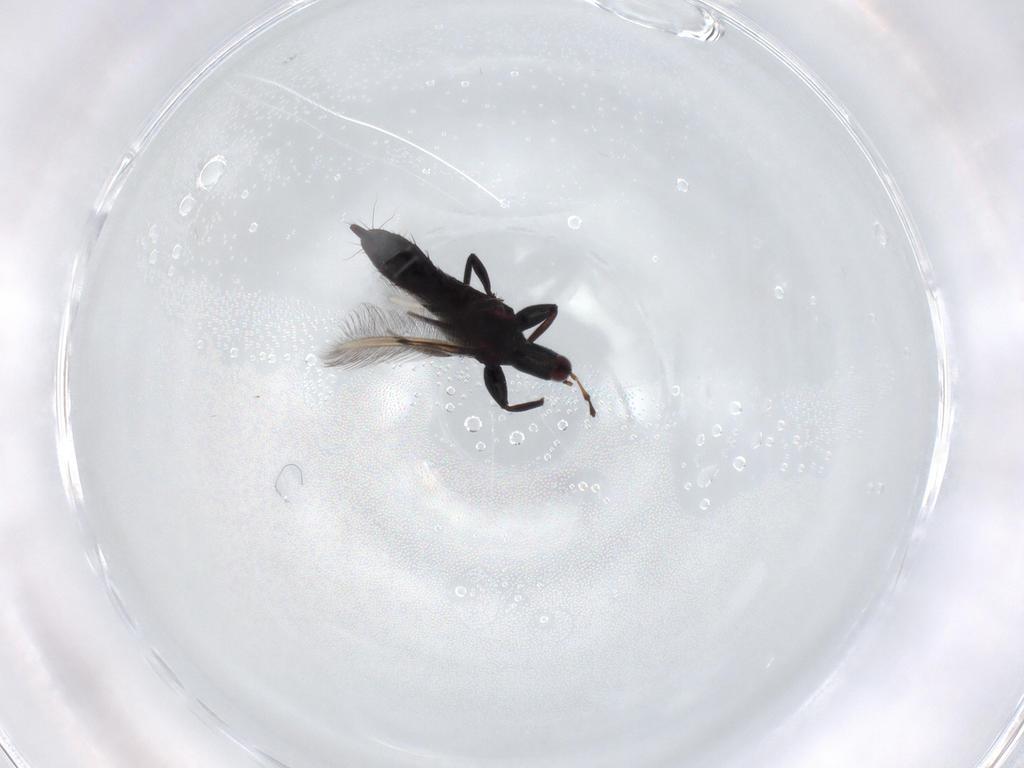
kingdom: Animalia
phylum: Arthropoda
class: Insecta
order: Thysanoptera
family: Phlaeothripidae
